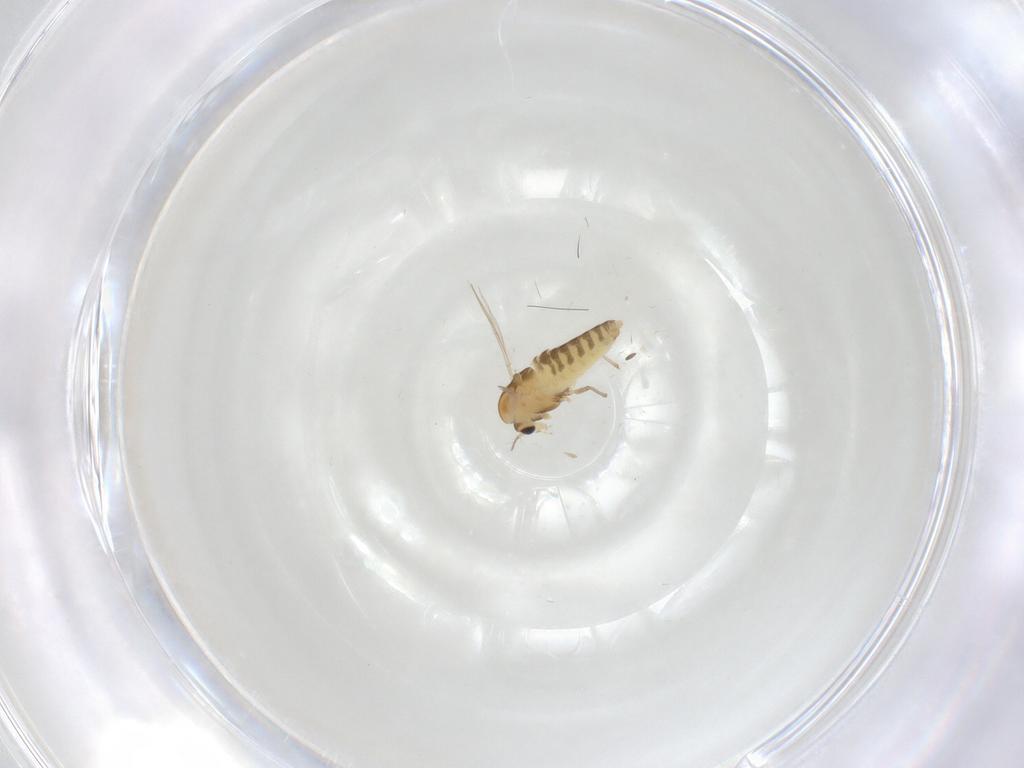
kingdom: Animalia
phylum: Arthropoda
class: Insecta
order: Diptera
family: Chironomidae
